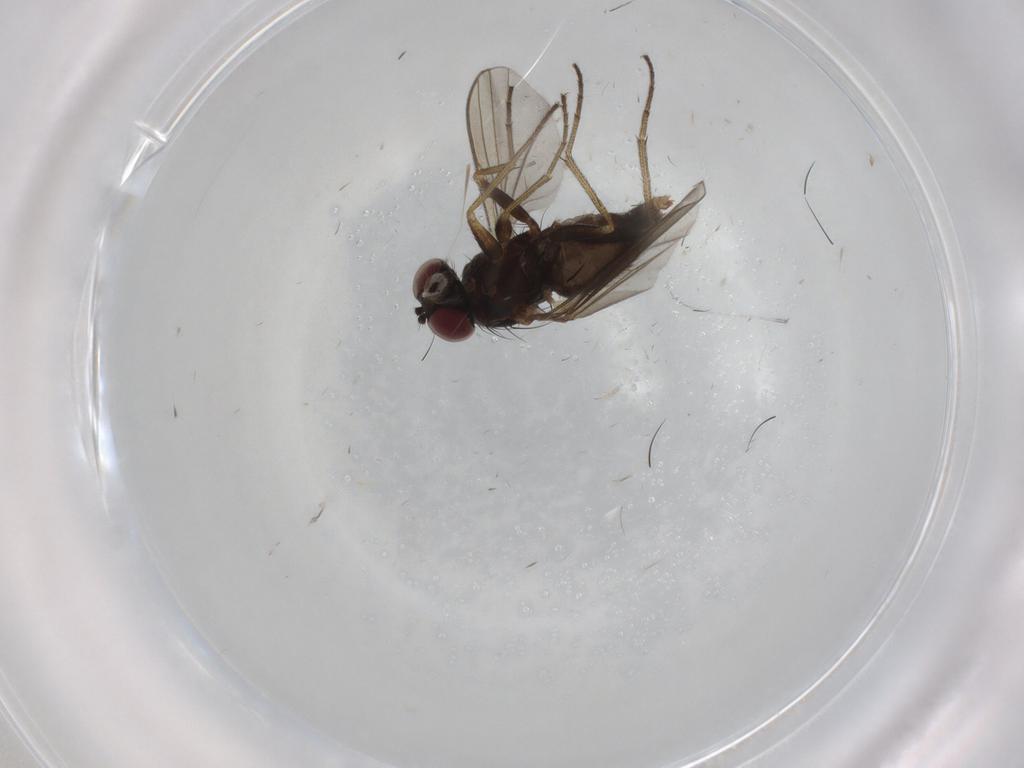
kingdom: Animalia
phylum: Arthropoda
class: Insecta
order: Diptera
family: Dolichopodidae
